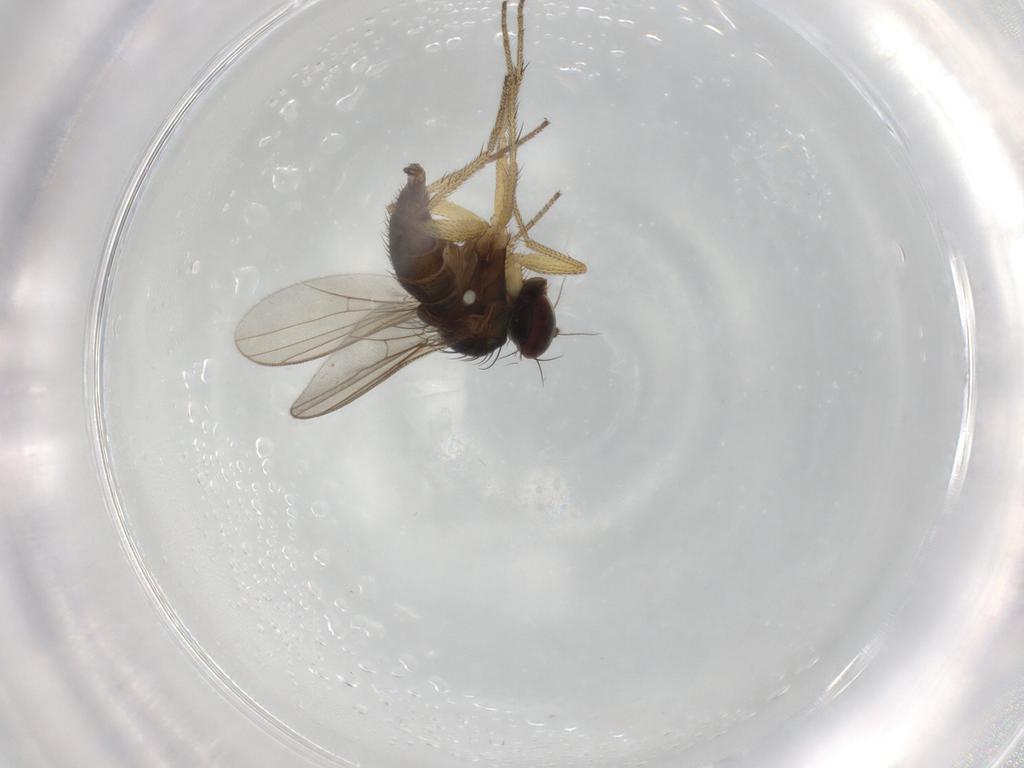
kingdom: Animalia
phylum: Arthropoda
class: Insecta
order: Diptera
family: Dolichopodidae
